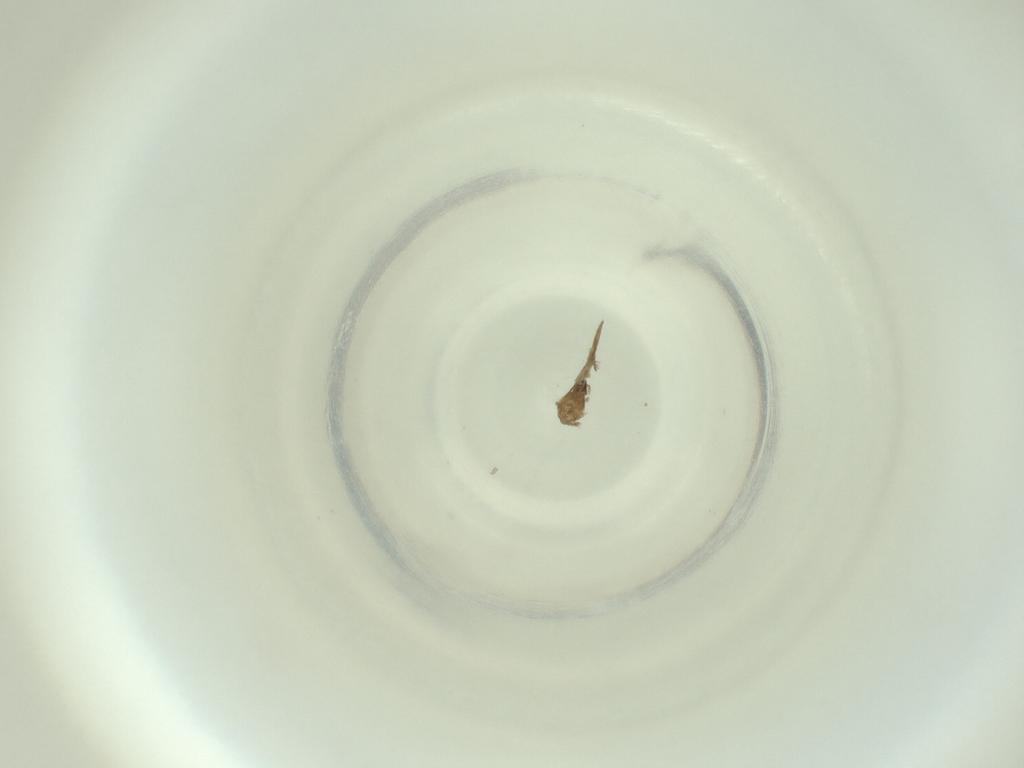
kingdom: Animalia
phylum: Arthropoda
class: Insecta
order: Diptera
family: Cecidomyiidae
